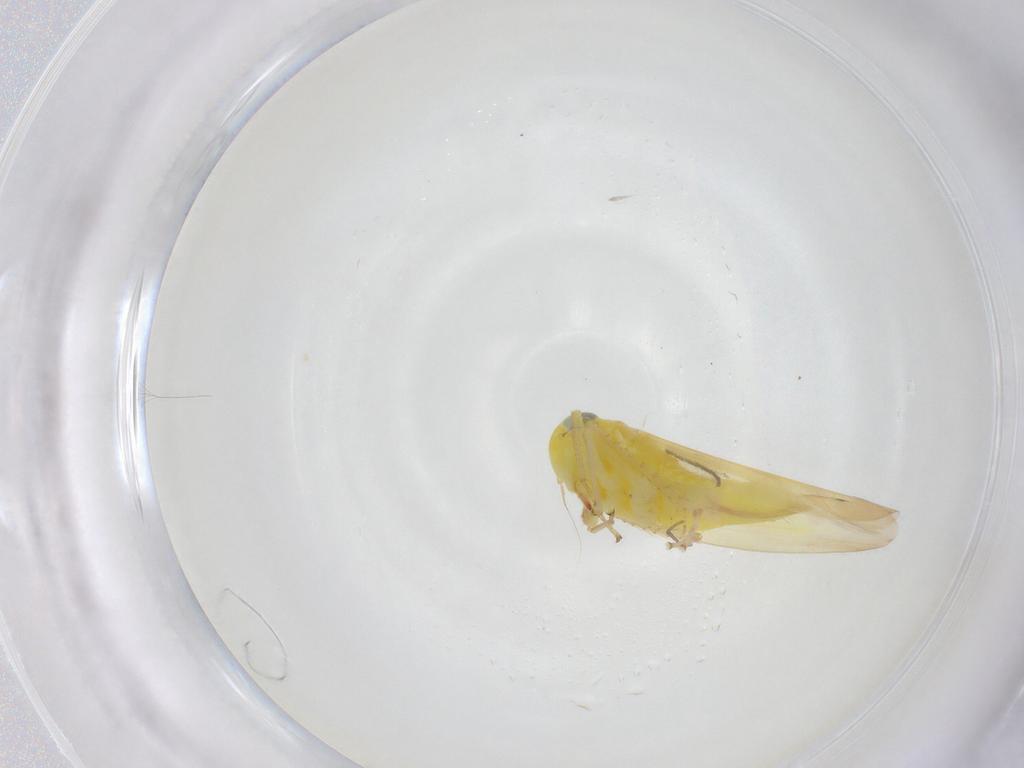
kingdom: Animalia
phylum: Arthropoda
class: Insecta
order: Hemiptera
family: Cicadellidae
